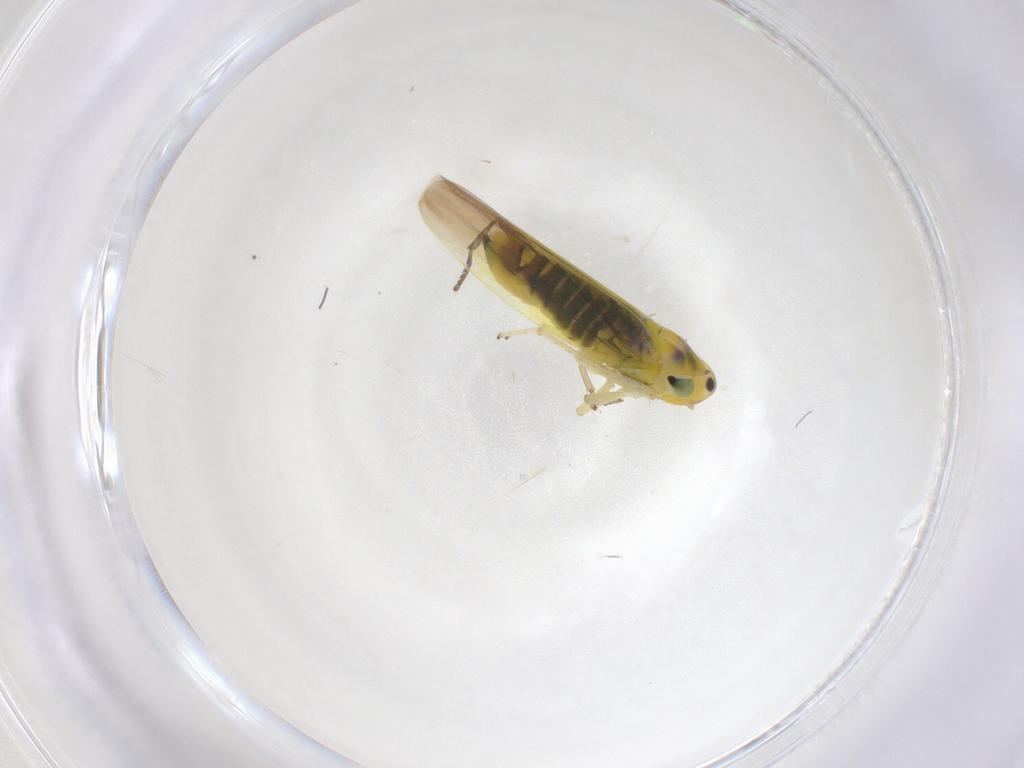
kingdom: Animalia
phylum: Arthropoda
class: Insecta
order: Hemiptera
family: Cicadellidae
